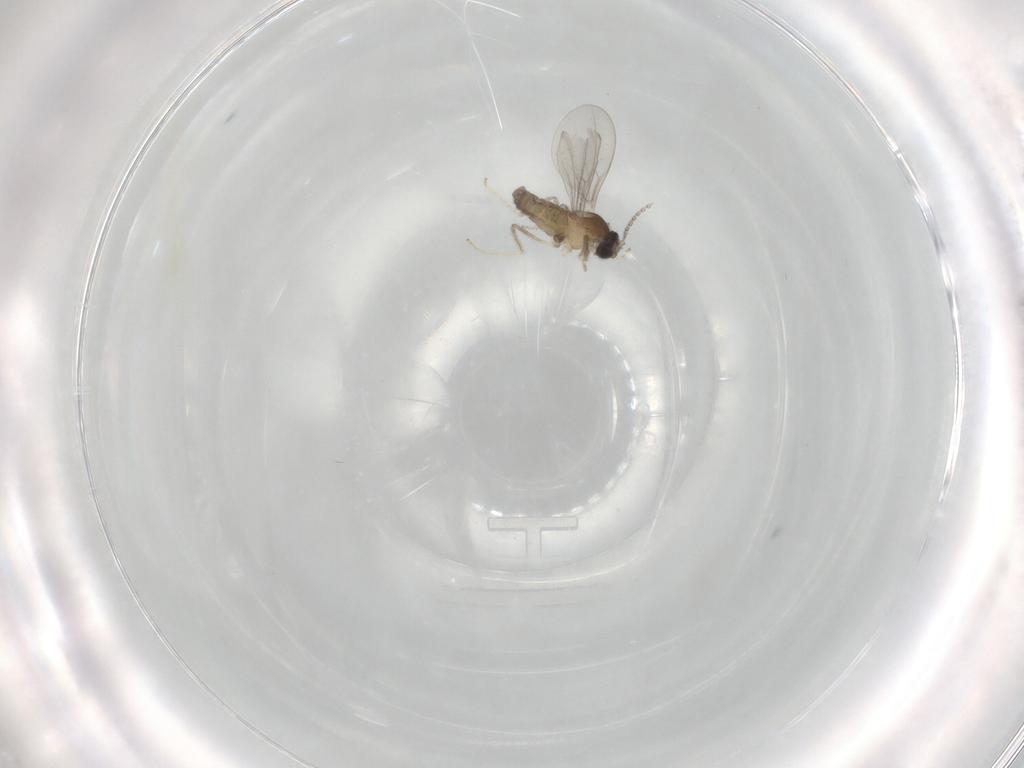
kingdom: Animalia
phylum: Arthropoda
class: Insecta
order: Diptera
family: Cecidomyiidae
